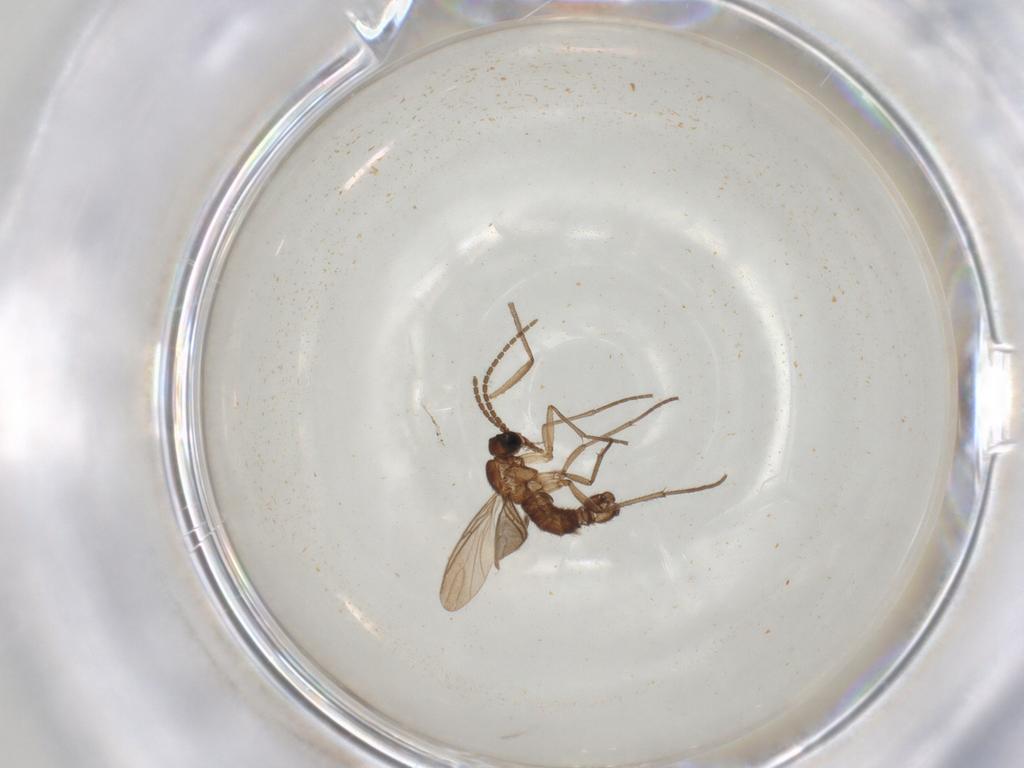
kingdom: Animalia
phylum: Arthropoda
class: Insecta
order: Diptera
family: Sciaridae
